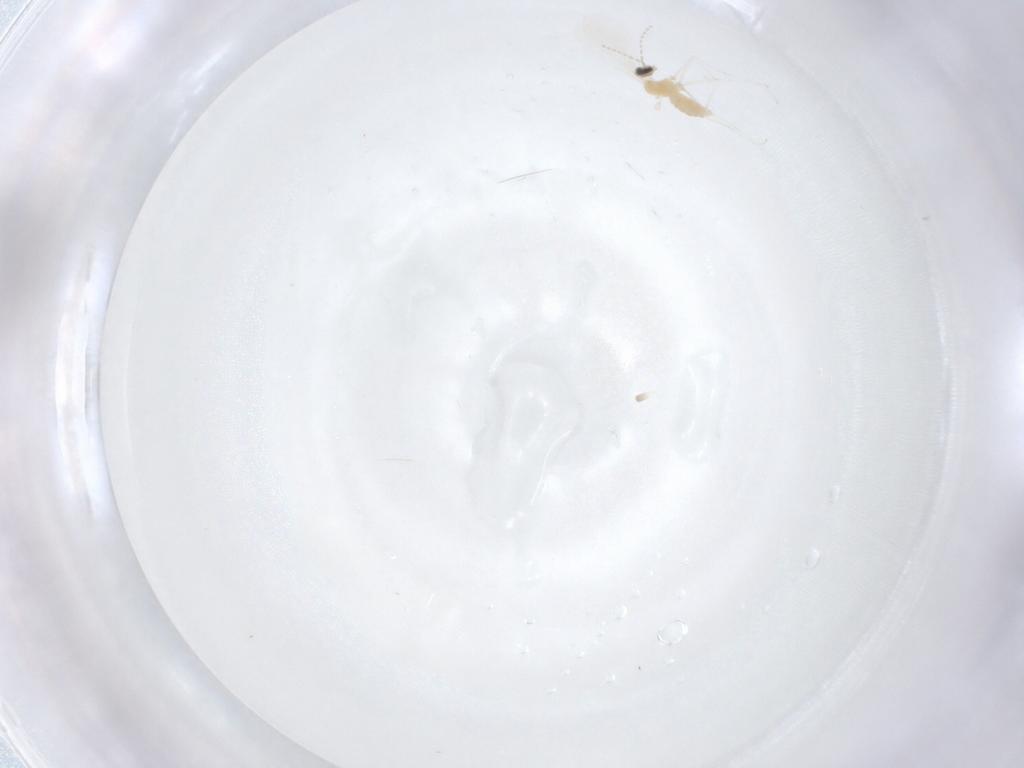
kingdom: Animalia
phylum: Arthropoda
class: Insecta
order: Diptera
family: Cecidomyiidae
